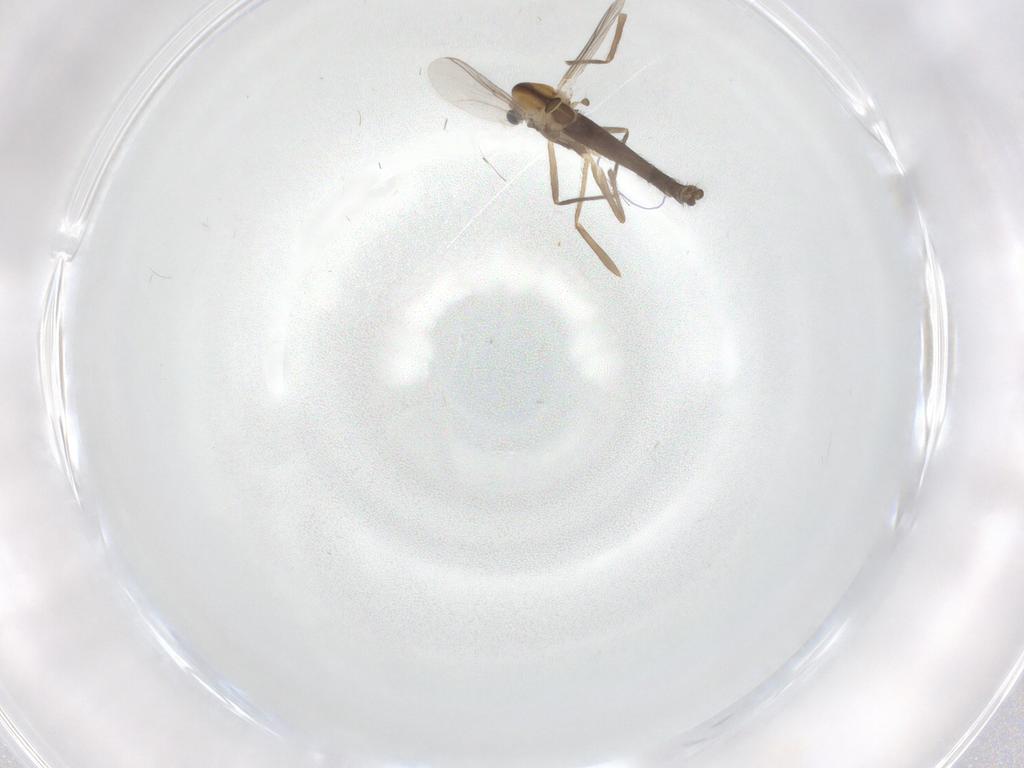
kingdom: Animalia
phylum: Arthropoda
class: Insecta
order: Diptera
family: Chironomidae
